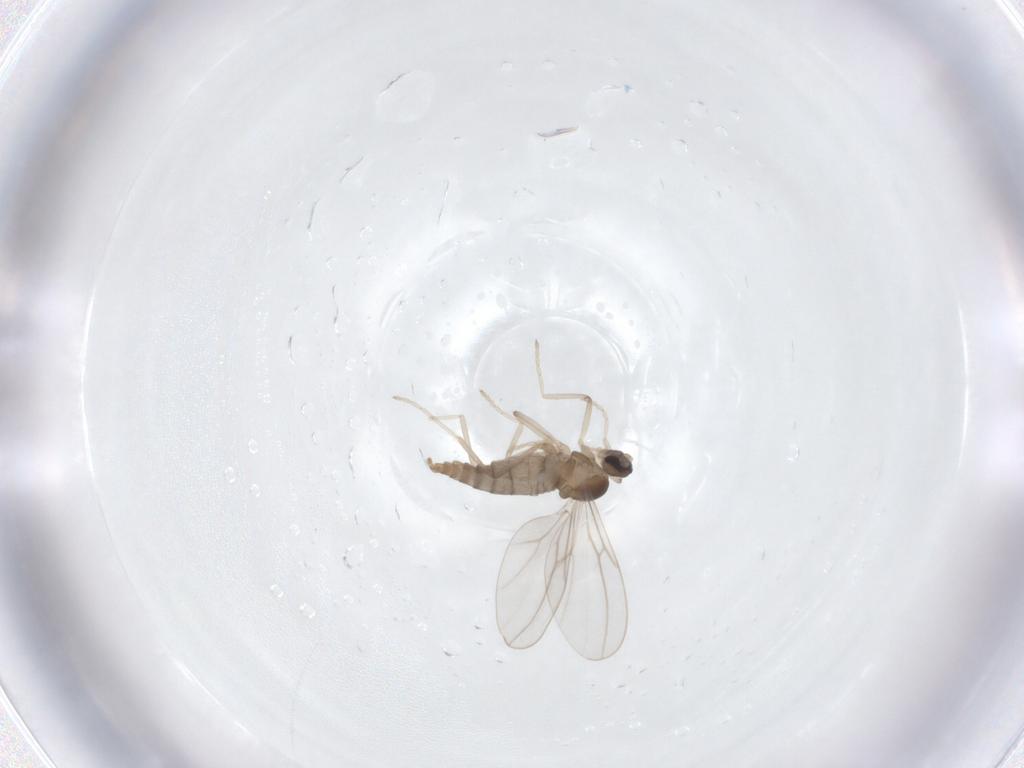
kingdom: Animalia
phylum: Arthropoda
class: Insecta
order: Diptera
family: Cecidomyiidae
